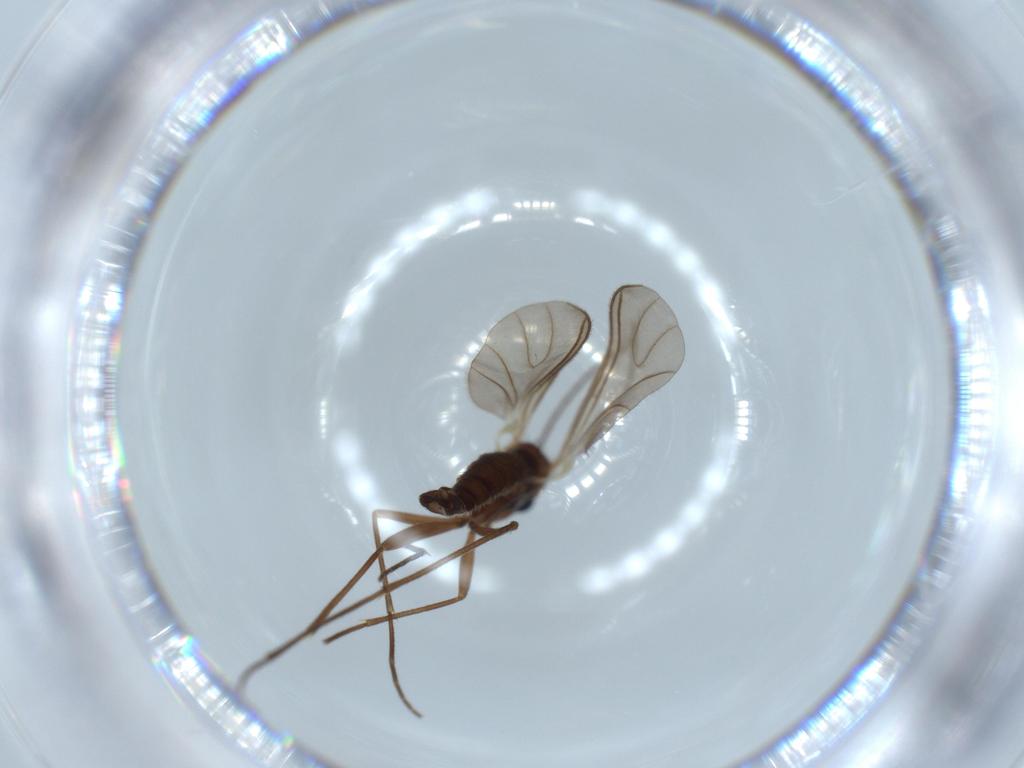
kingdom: Animalia
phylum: Arthropoda
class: Insecta
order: Diptera
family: Sciaridae
